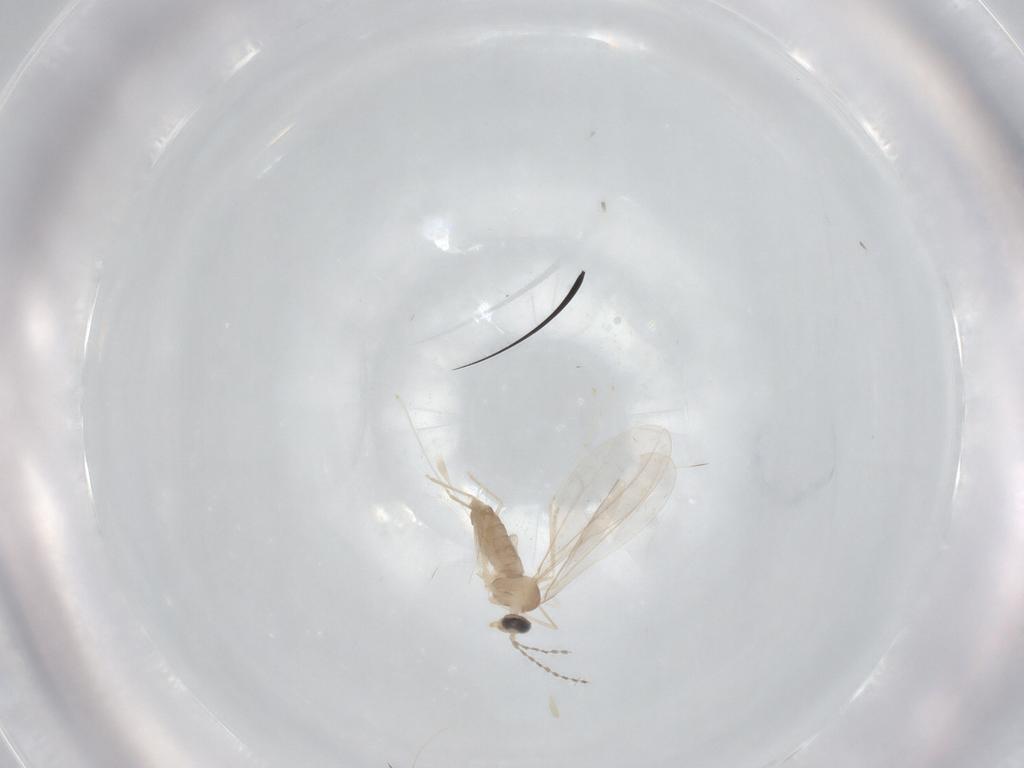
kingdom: Animalia
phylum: Arthropoda
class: Insecta
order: Diptera
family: Cecidomyiidae
